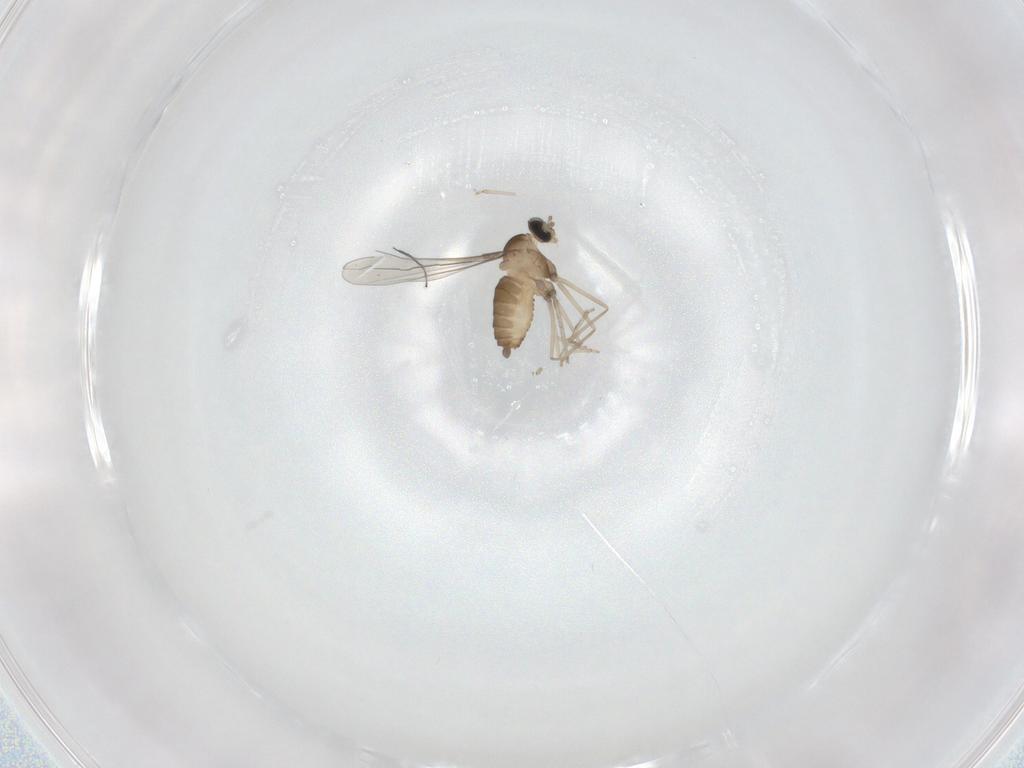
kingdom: Animalia
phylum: Arthropoda
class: Insecta
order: Diptera
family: Cecidomyiidae
